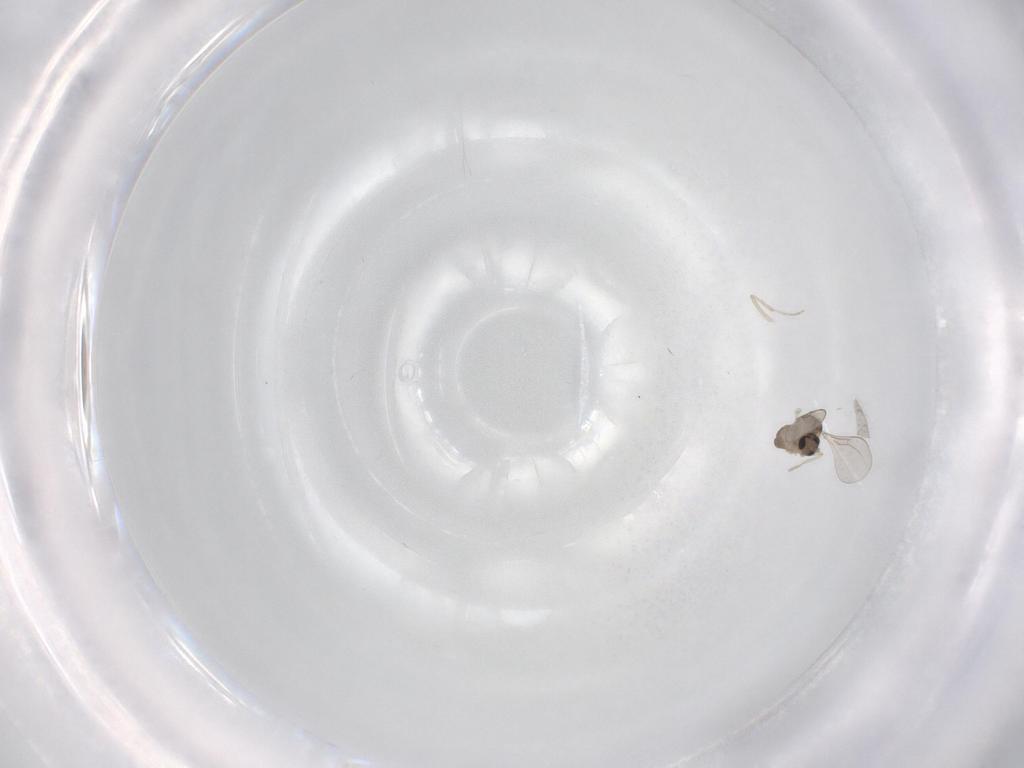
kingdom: Animalia
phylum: Arthropoda
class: Insecta
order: Diptera
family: Cecidomyiidae
